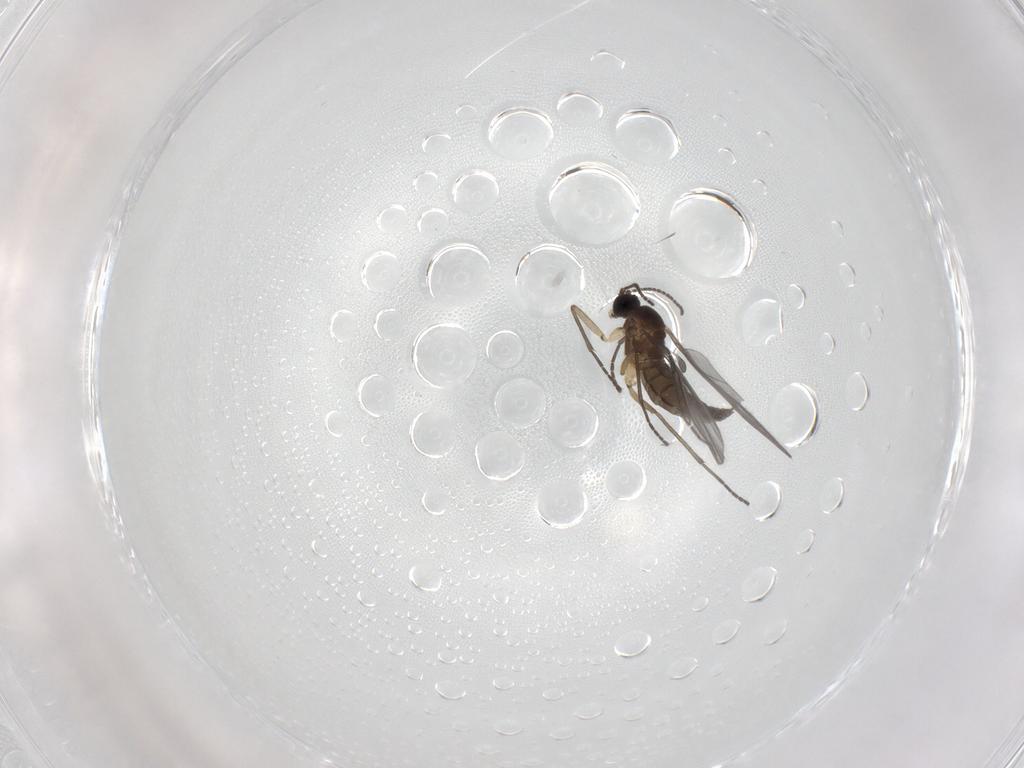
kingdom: Animalia
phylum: Arthropoda
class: Insecta
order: Diptera
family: Sciaridae
